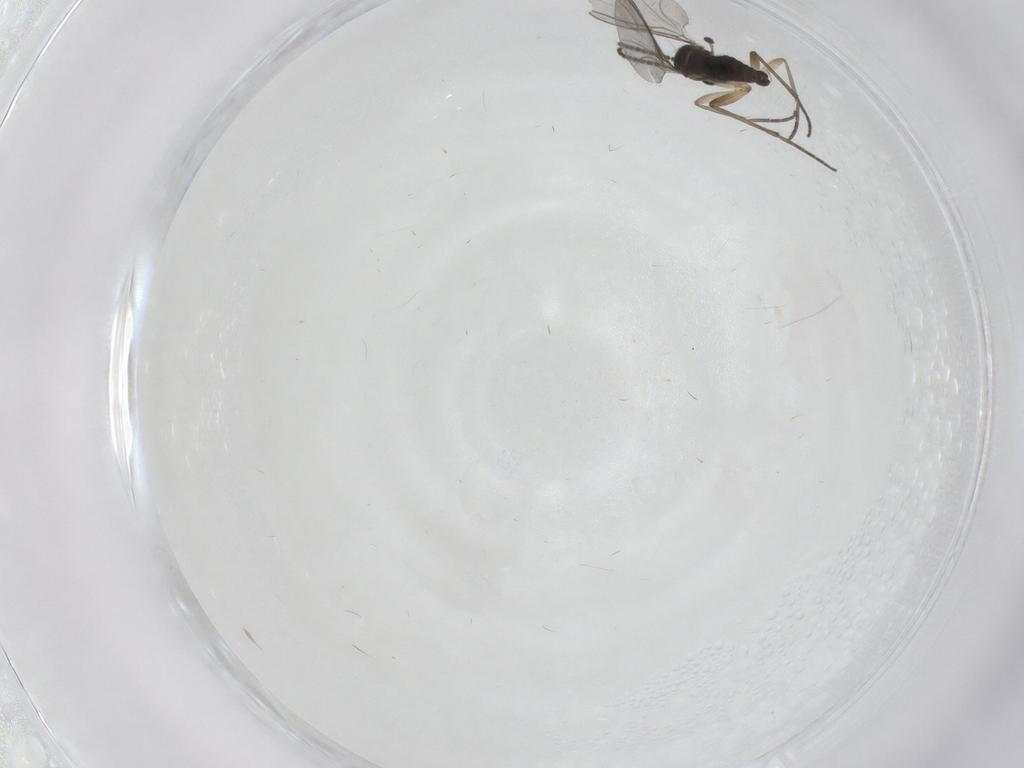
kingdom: Animalia
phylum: Arthropoda
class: Insecta
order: Diptera
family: Sciaridae
